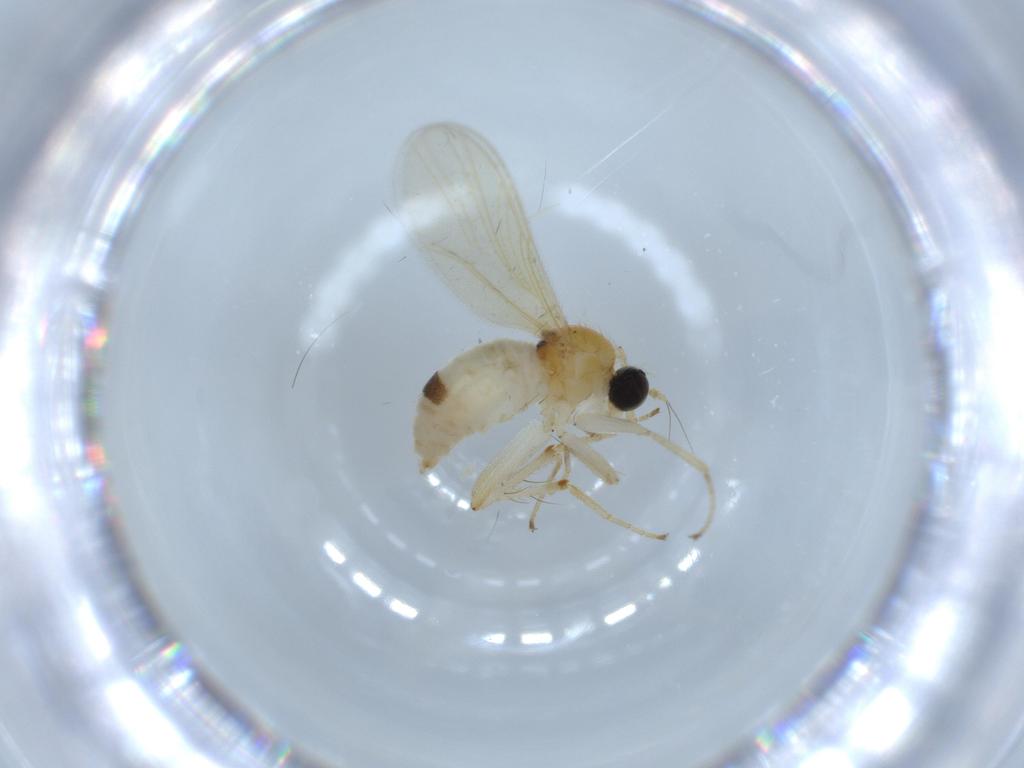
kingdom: Animalia
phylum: Arthropoda
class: Insecta
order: Diptera
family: Hybotidae
